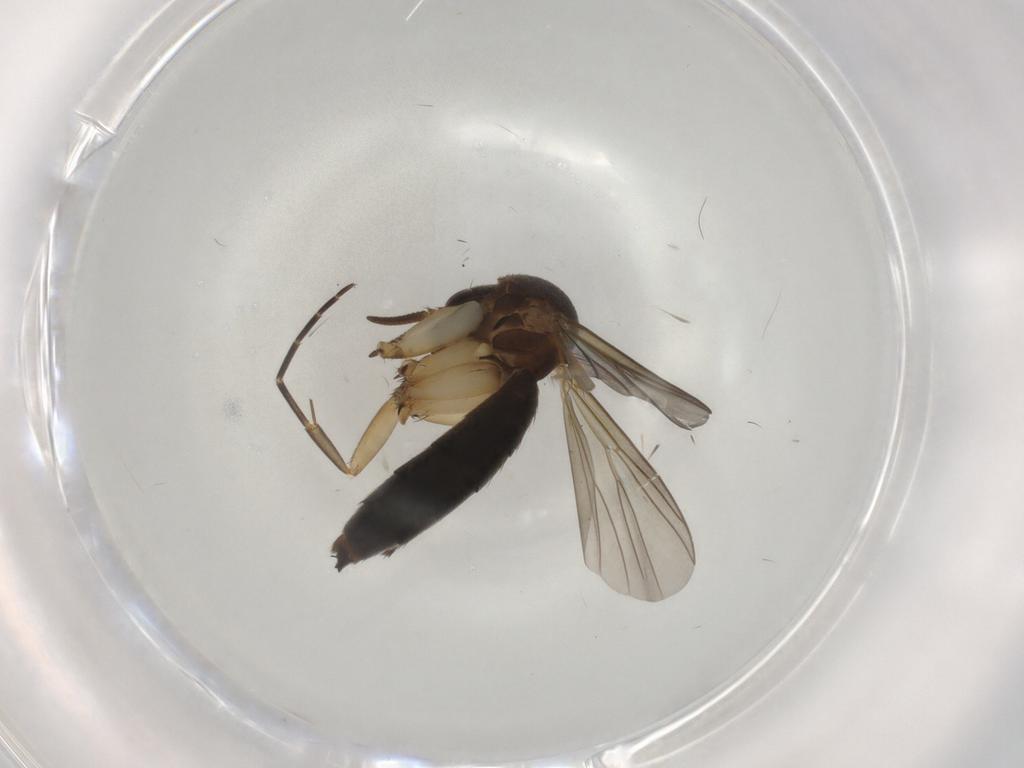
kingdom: Animalia
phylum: Arthropoda
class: Insecta
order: Diptera
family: Mycetophilidae
